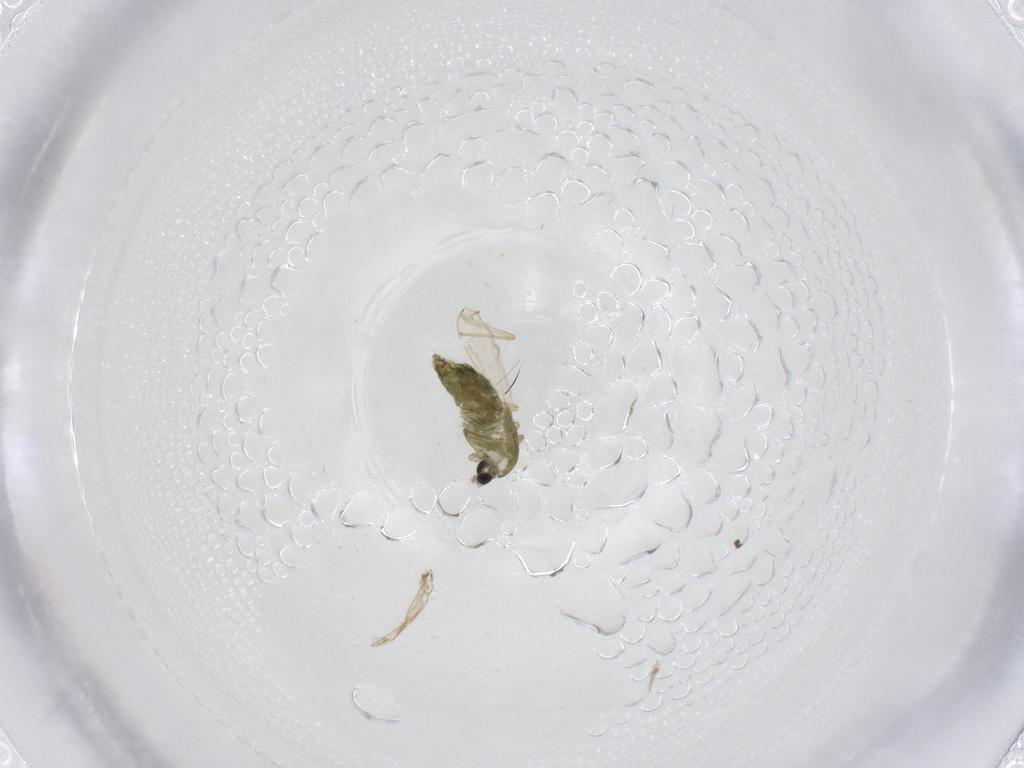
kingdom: Animalia
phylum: Arthropoda
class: Insecta
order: Diptera
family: Chironomidae
